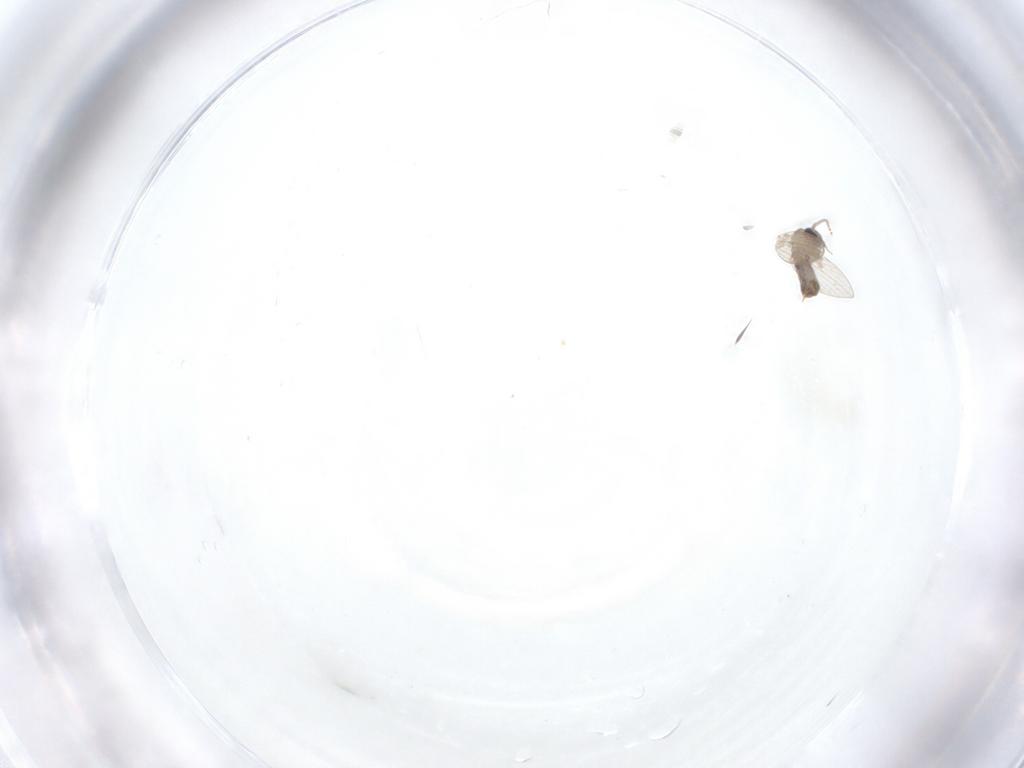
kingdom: Animalia
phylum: Arthropoda
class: Insecta
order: Diptera
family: Psychodidae
